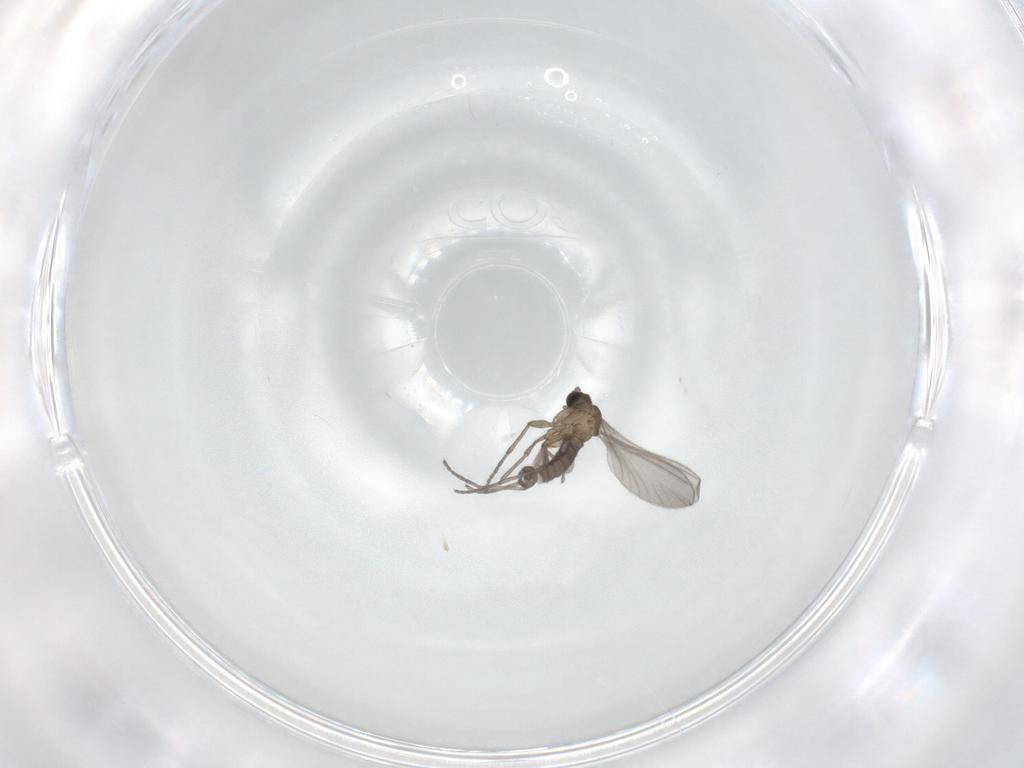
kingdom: Animalia
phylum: Arthropoda
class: Insecta
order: Diptera
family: Sciaridae
